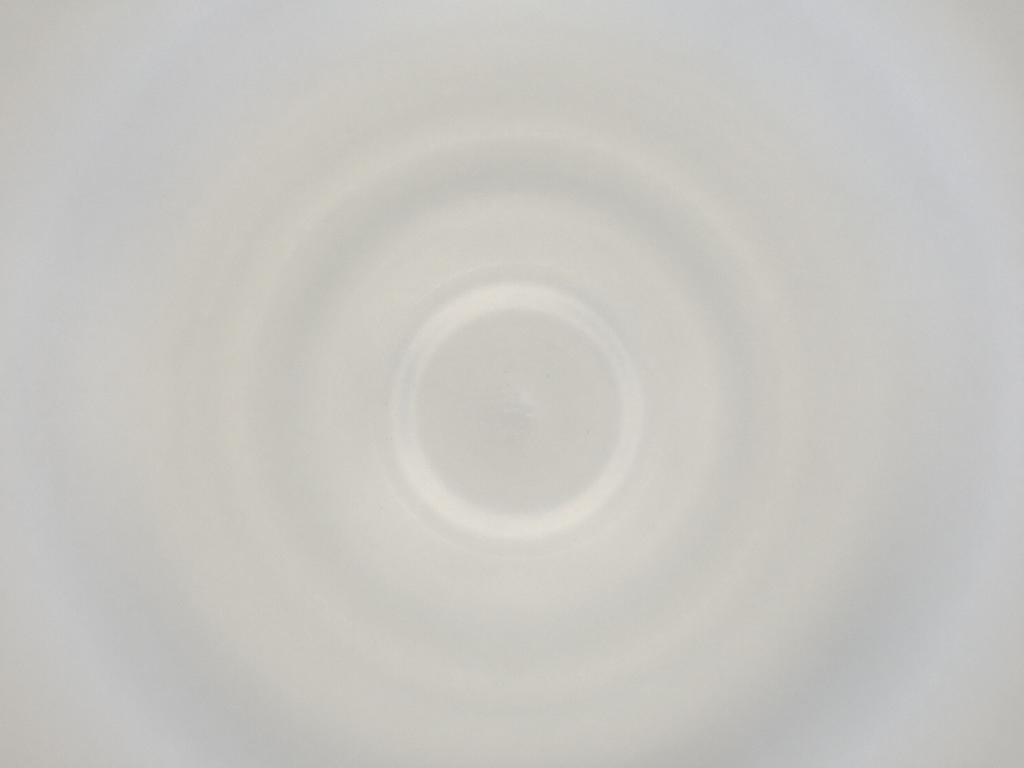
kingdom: Animalia
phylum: Arthropoda
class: Insecta
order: Diptera
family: Cecidomyiidae
